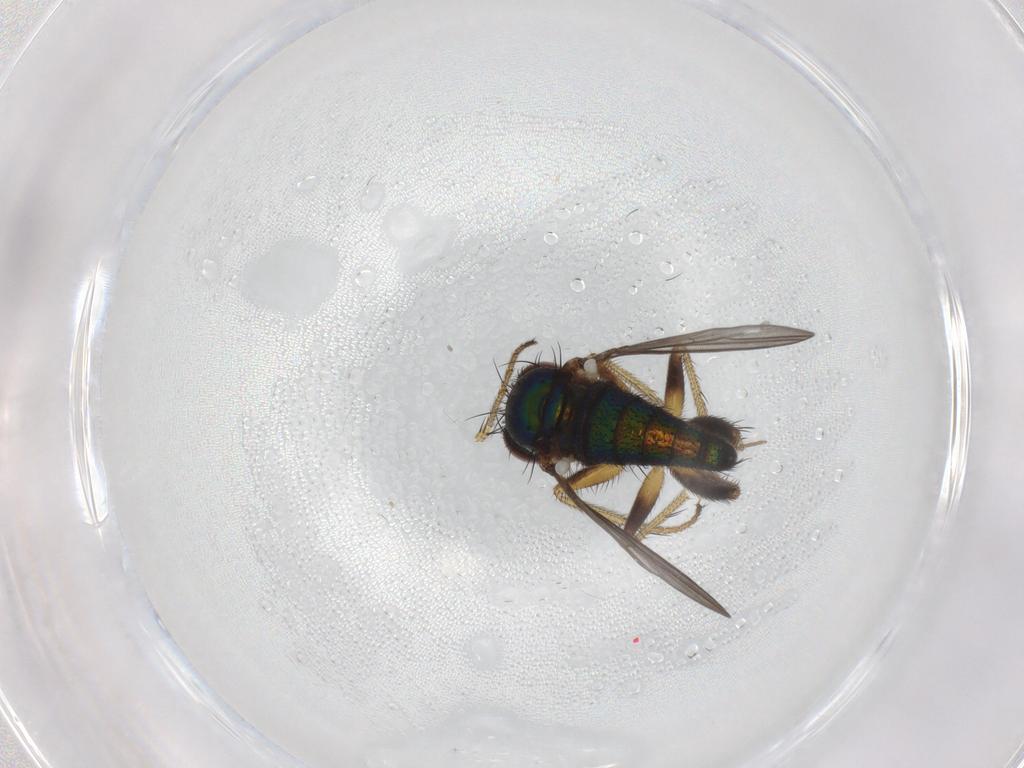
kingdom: Animalia
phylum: Arthropoda
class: Insecta
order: Diptera
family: Dolichopodidae
